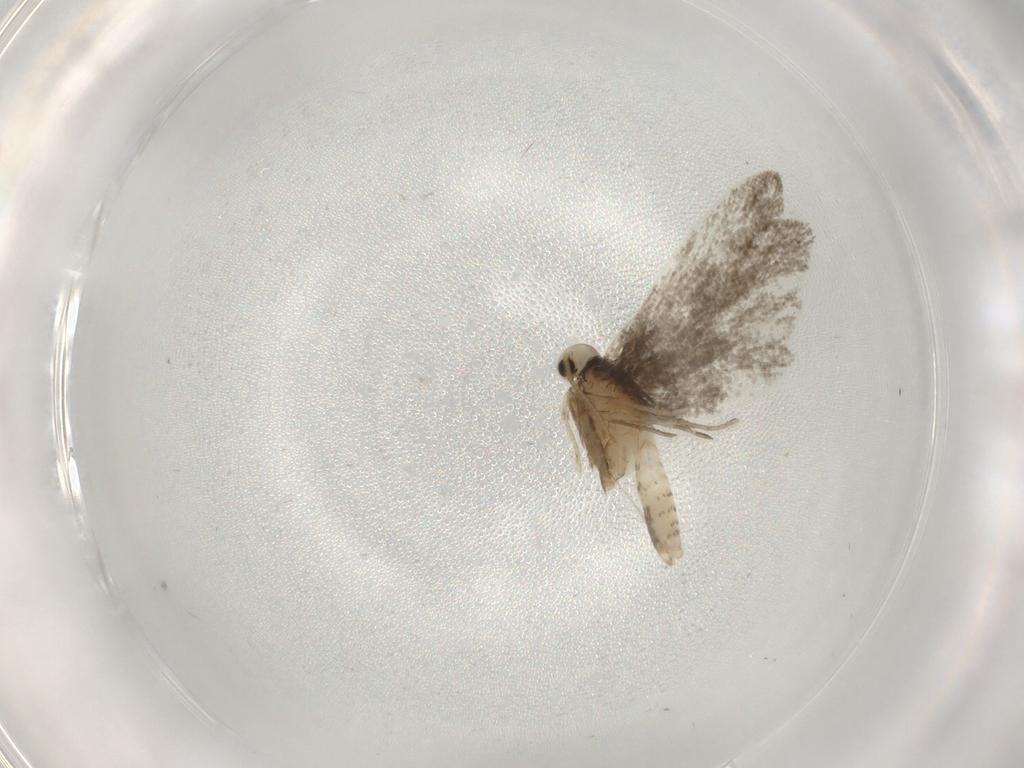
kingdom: Animalia
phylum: Arthropoda
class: Insecta
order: Lepidoptera
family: Psychidae
